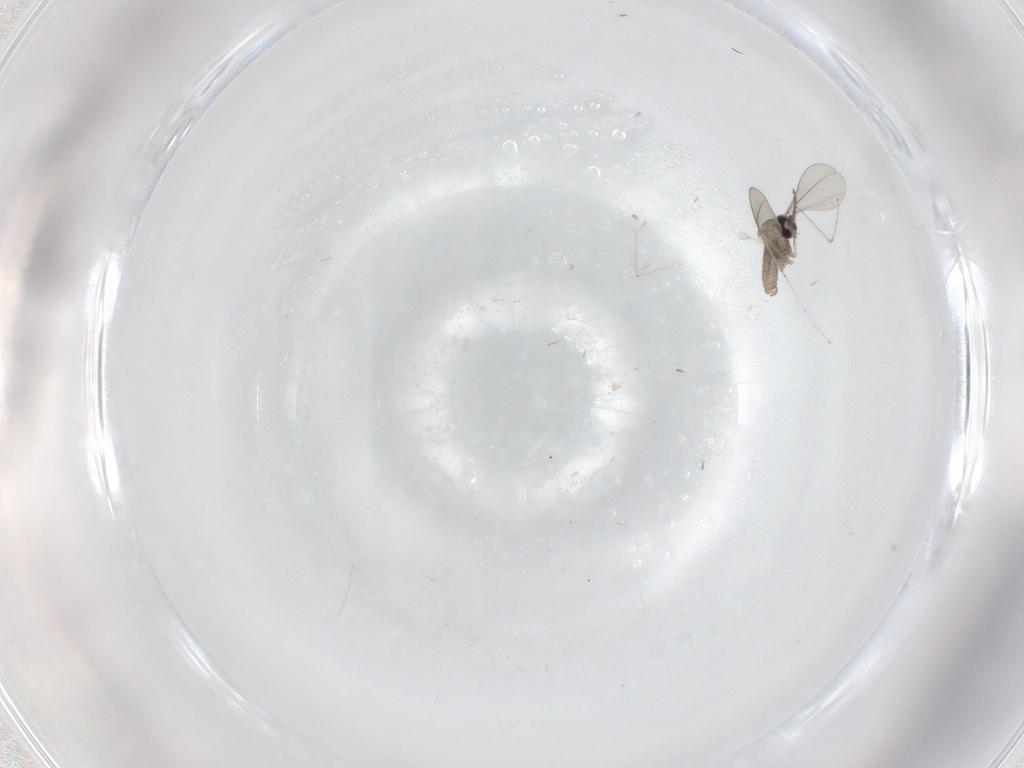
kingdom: Animalia
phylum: Arthropoda
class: Insecta
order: Diptera
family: Cecidomyiidae
